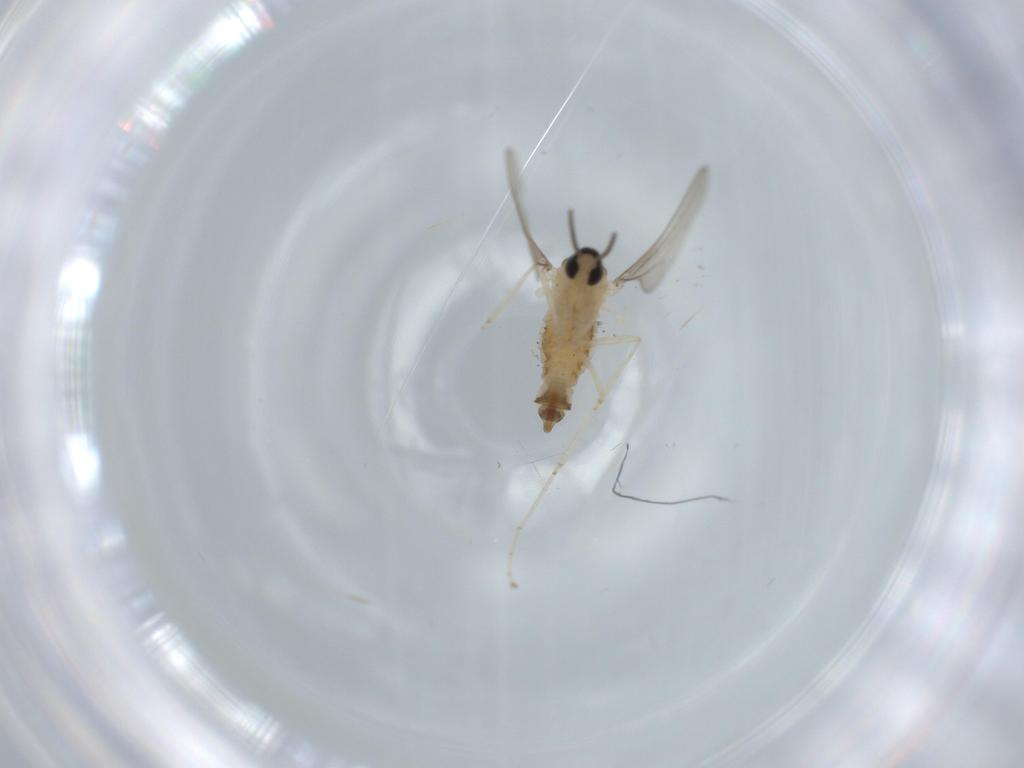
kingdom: Animalia
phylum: Arthropoda
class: Insecta
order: Diptera
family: Cecidomyiidae
